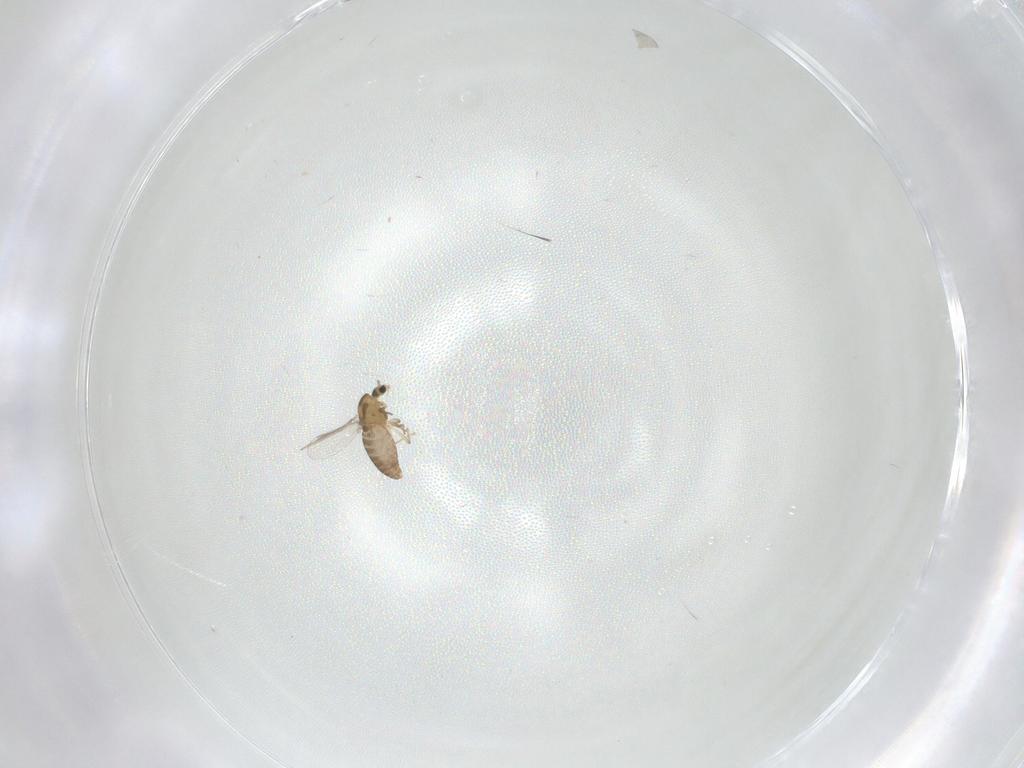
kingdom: Animalia
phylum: Arthropoda
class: Insecta
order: Diptera
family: Chironomidae
